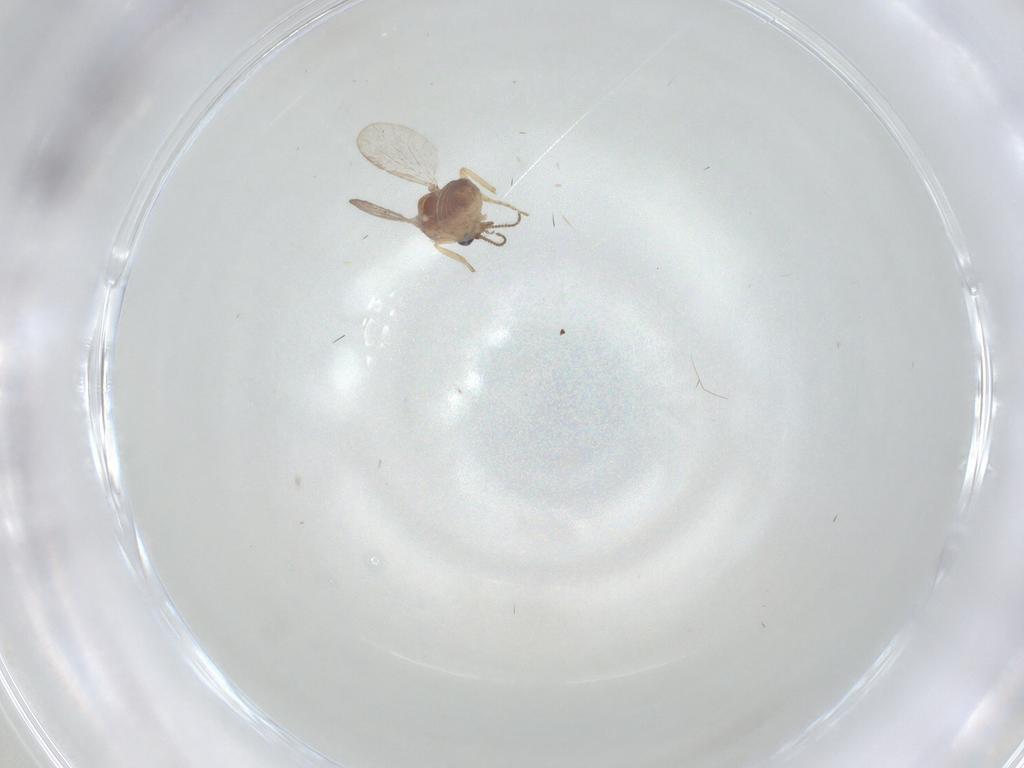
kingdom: Animalia
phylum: Arthropoda
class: Insecta
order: Diptera
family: Ceratopogonidae
